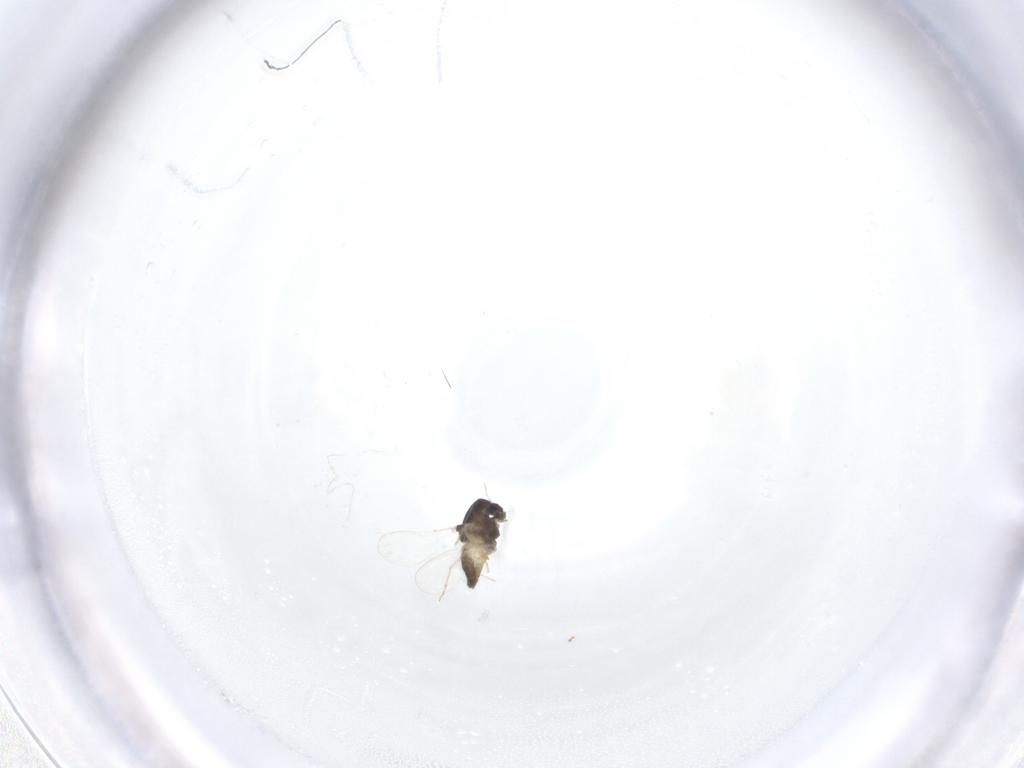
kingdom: Animalia
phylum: Arthropoda
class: Insecta
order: Diptera
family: Chironomidae
